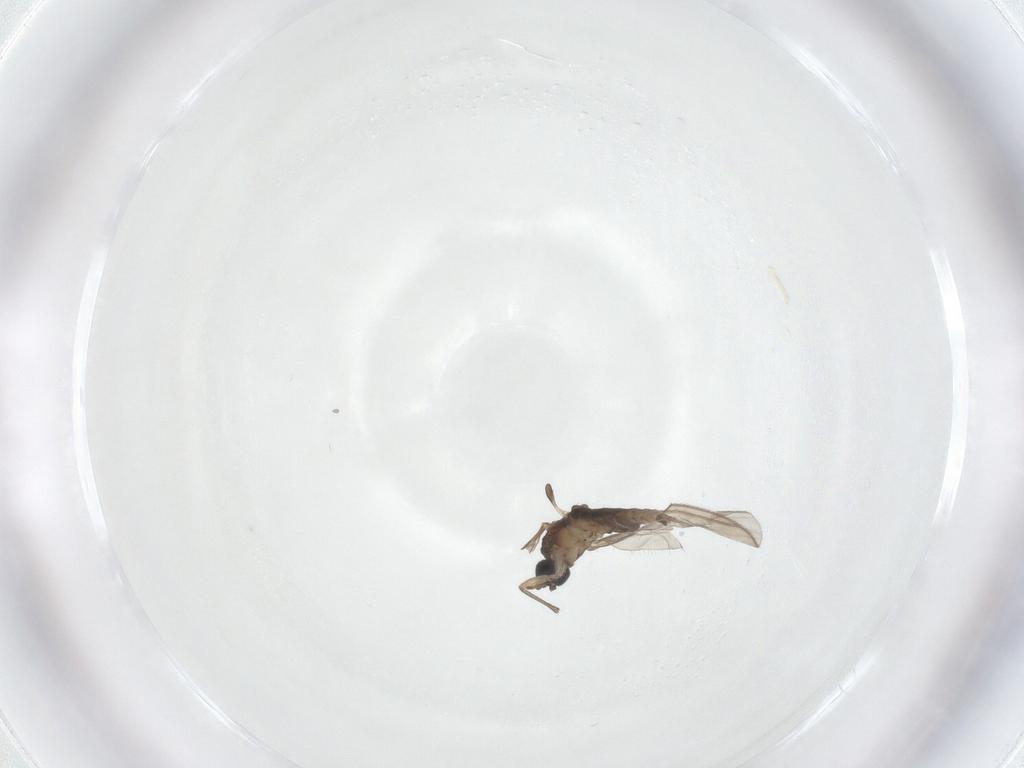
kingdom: Animalia
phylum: Arthropoda
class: Insecta
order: Diptera
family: Sciaridae
